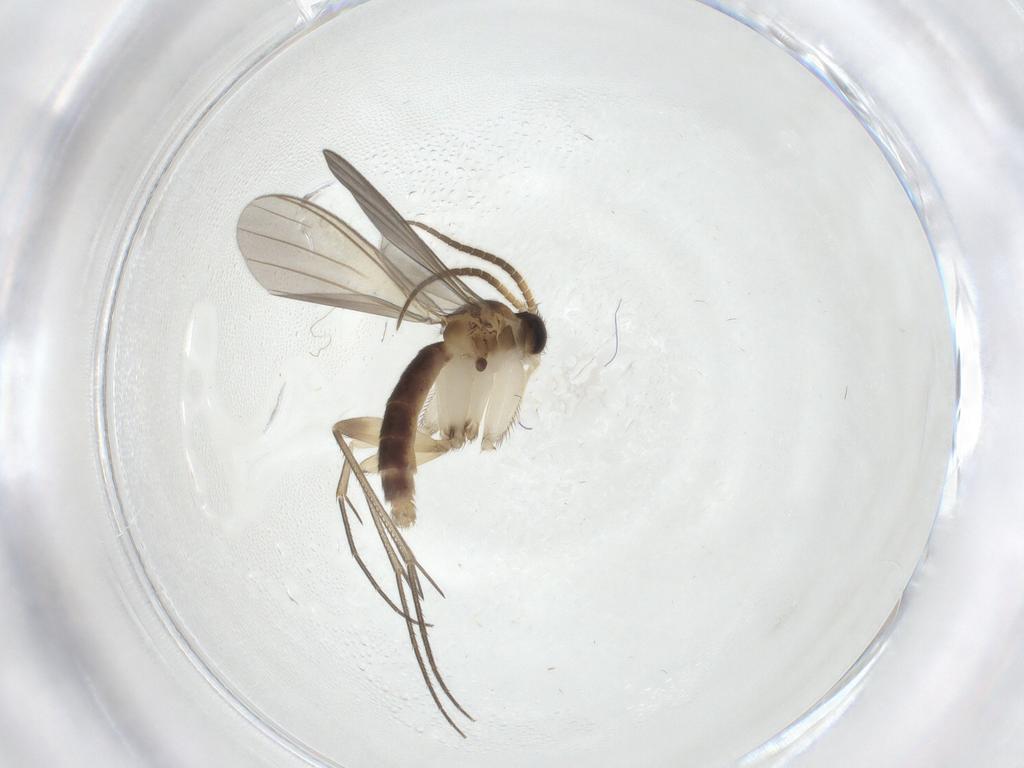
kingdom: Animalia
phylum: Arthropoda
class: Insecta
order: Diptera
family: Mycetophilidae
